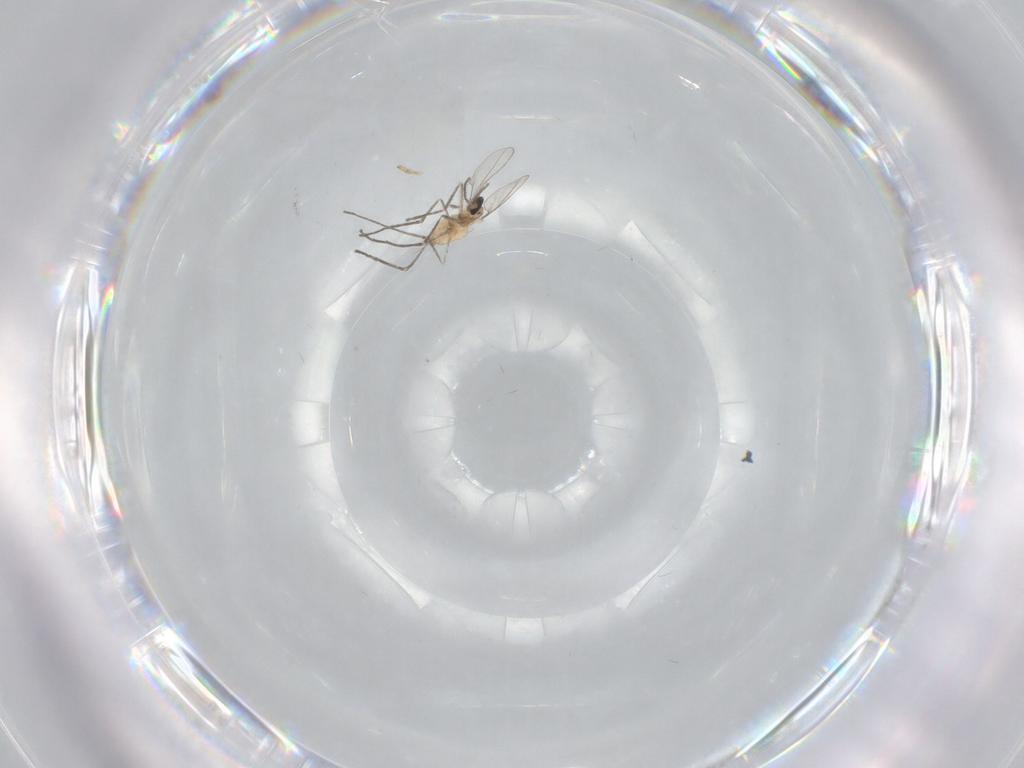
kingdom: Animalia
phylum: Arthropoda
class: Insecta
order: Diptera
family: Cecidomyiidae
